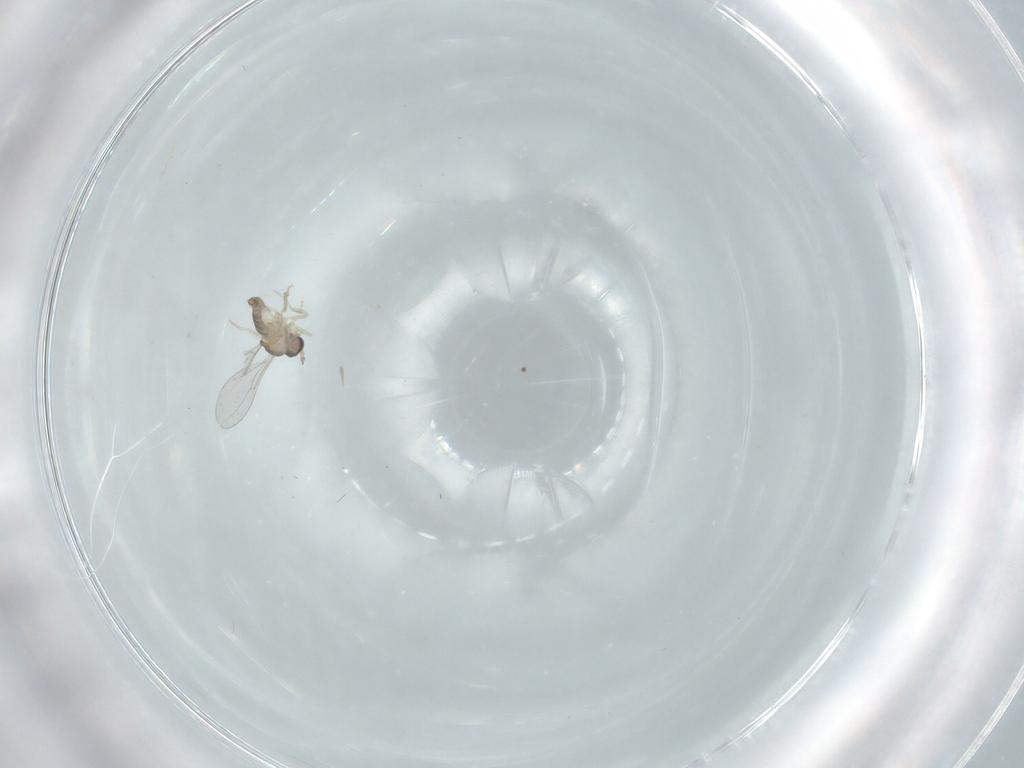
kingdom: Animalia
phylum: Arthropoda
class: Insecta
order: Diptera
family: Cecidomyiidae
